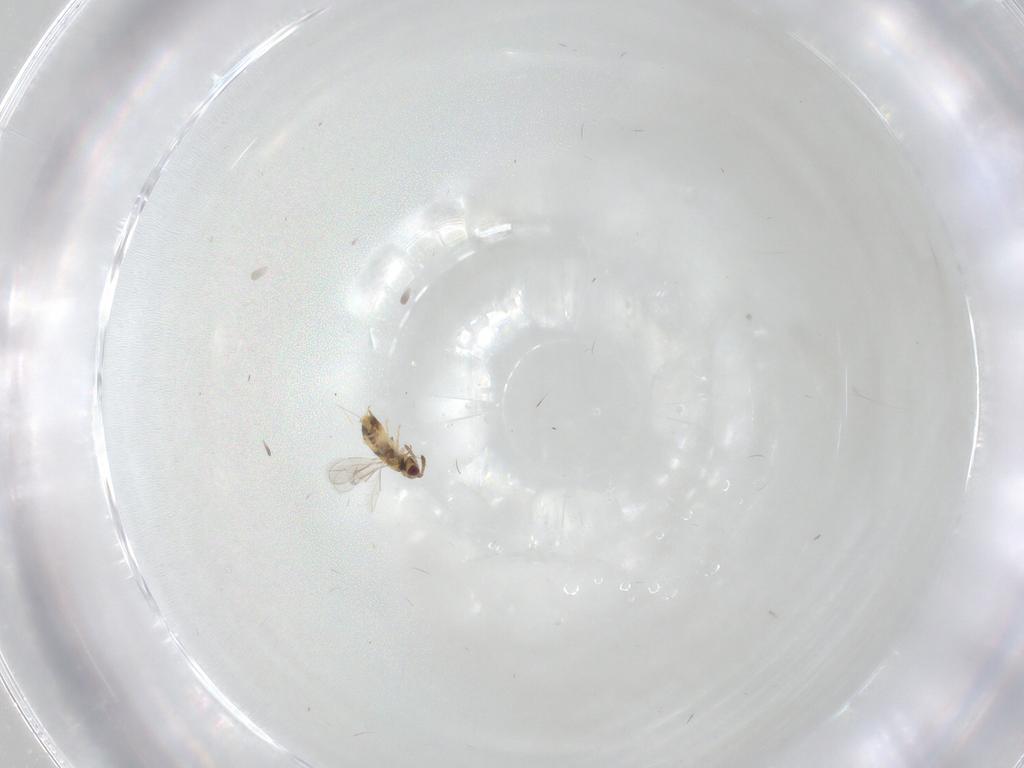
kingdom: Animalia
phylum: Arthropoda
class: Insecta
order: Hymenoptera
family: Aphelinidae
